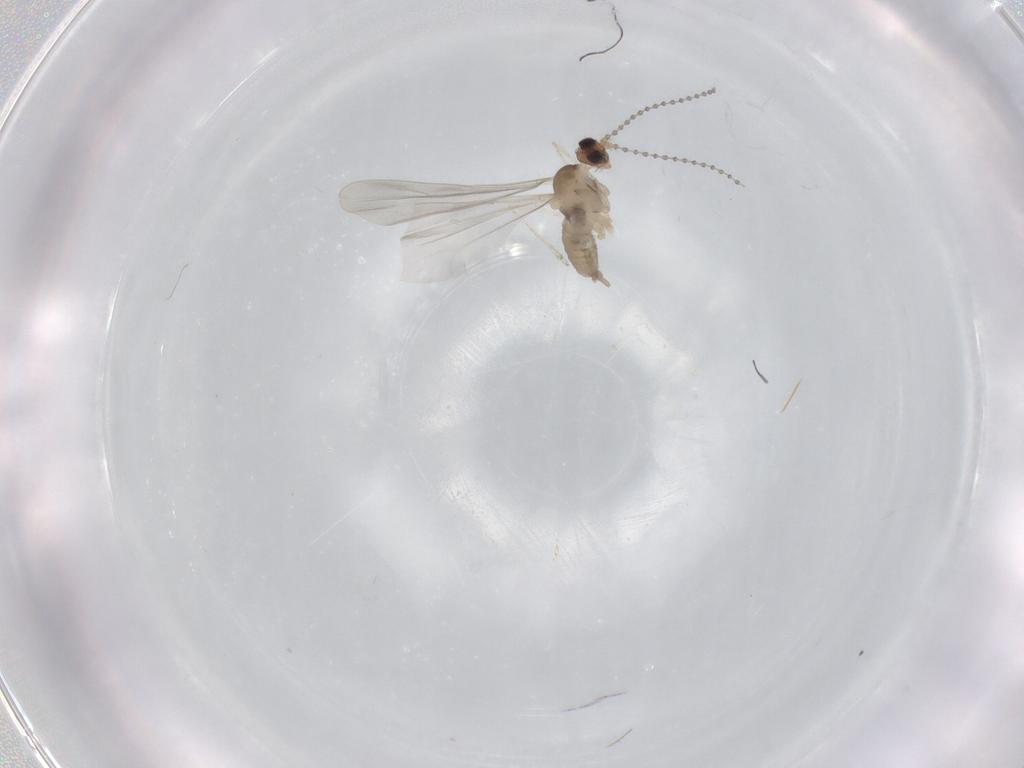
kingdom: Animalia
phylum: Arthropoda
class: Insecta
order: Diptera
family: Cecidomyiidae
